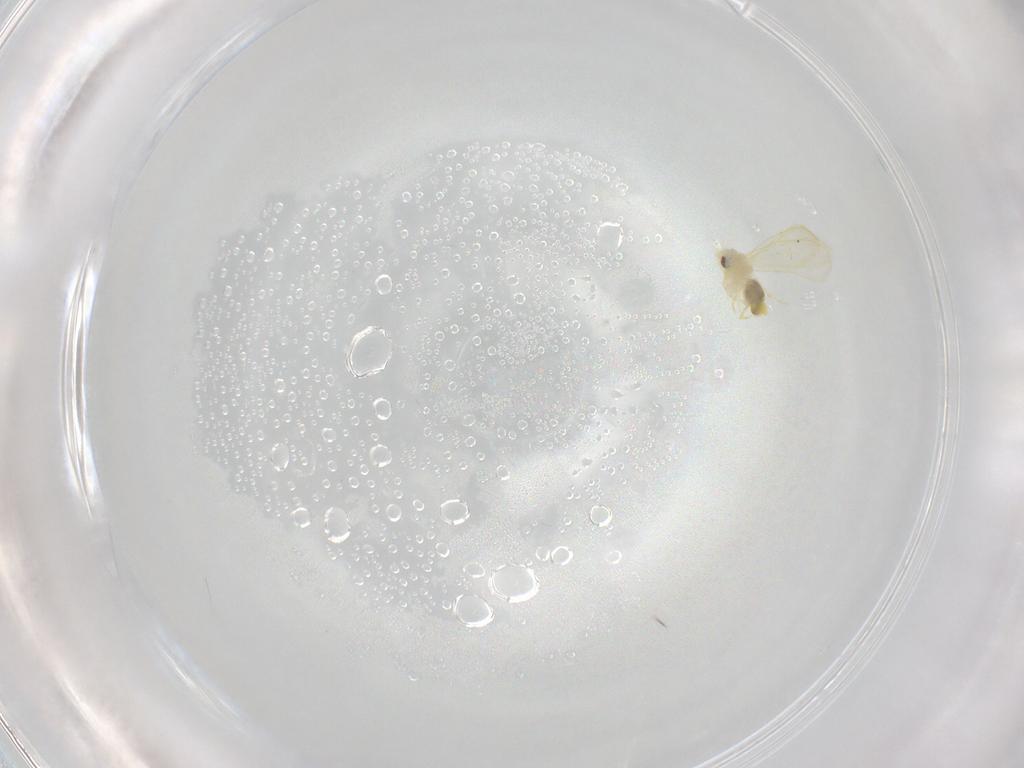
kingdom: Animalia
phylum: Arthropoda
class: Insecta
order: Hemiptera
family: Aleyrodidae
